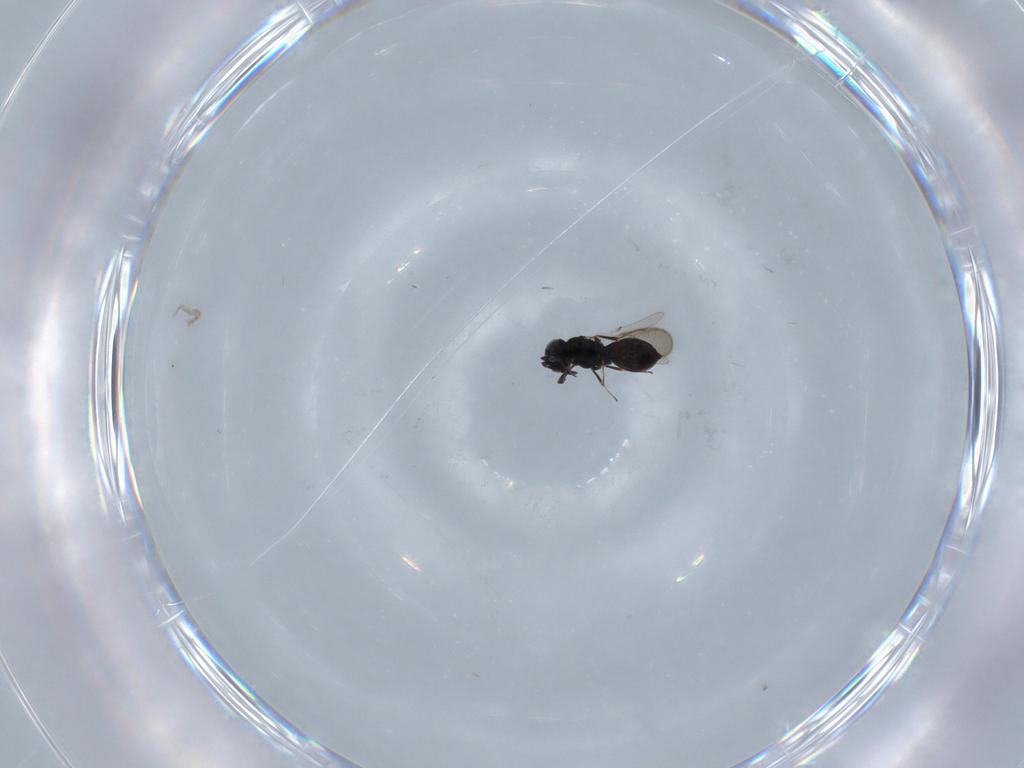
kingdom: Animalia
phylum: Arthropoda
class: Insecta
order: Hymenoptera
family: Scelionidae
